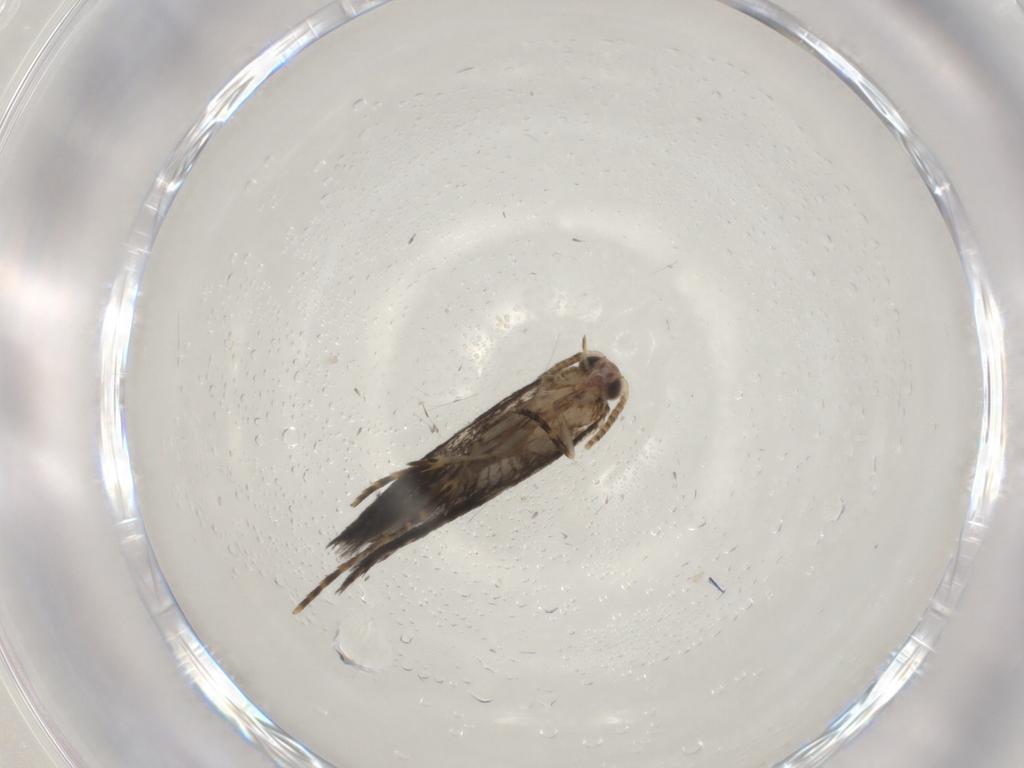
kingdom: Animalia
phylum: Arthropoda
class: Insecta
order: Lepidoptera
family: Tineidae
